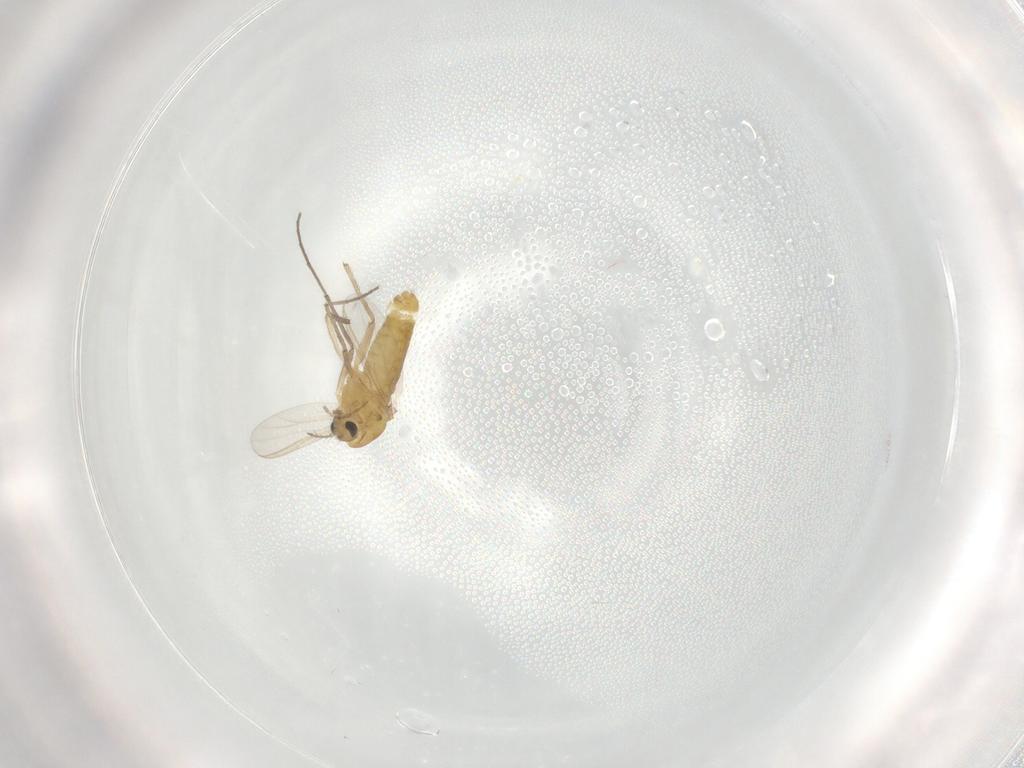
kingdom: Animalia
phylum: Arthropoda
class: Insecta
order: Diptera
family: Chironomidae
